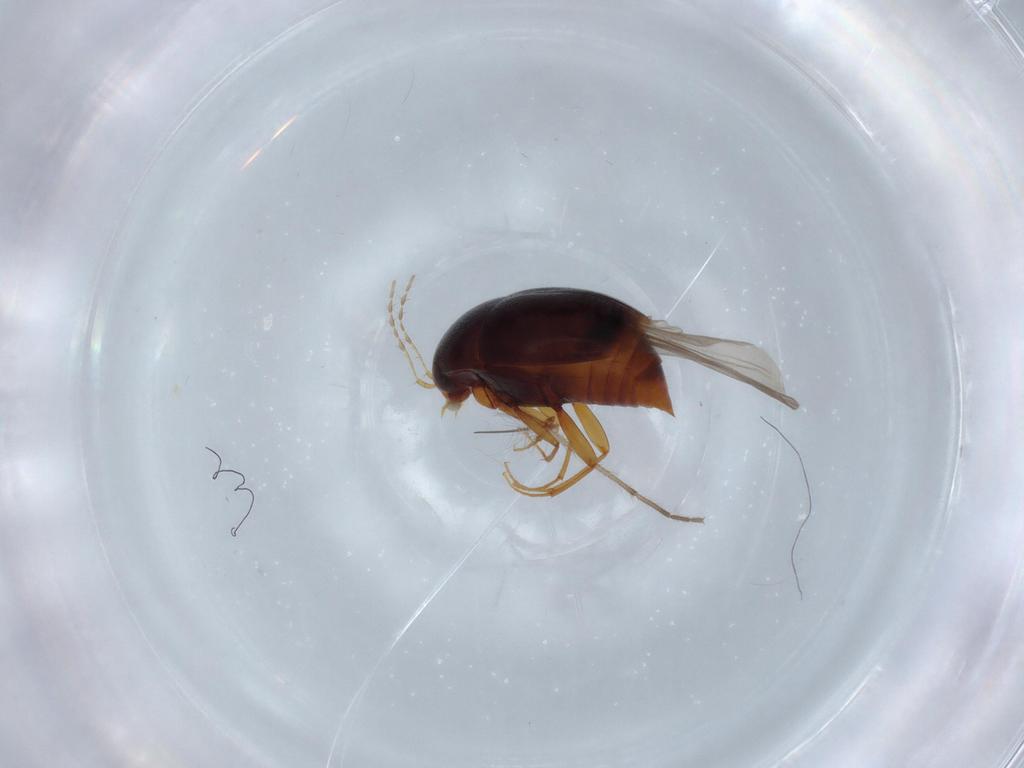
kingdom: Animalia
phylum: Arthropoda
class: Insecta
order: Coleoptera
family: Staphylinidae
